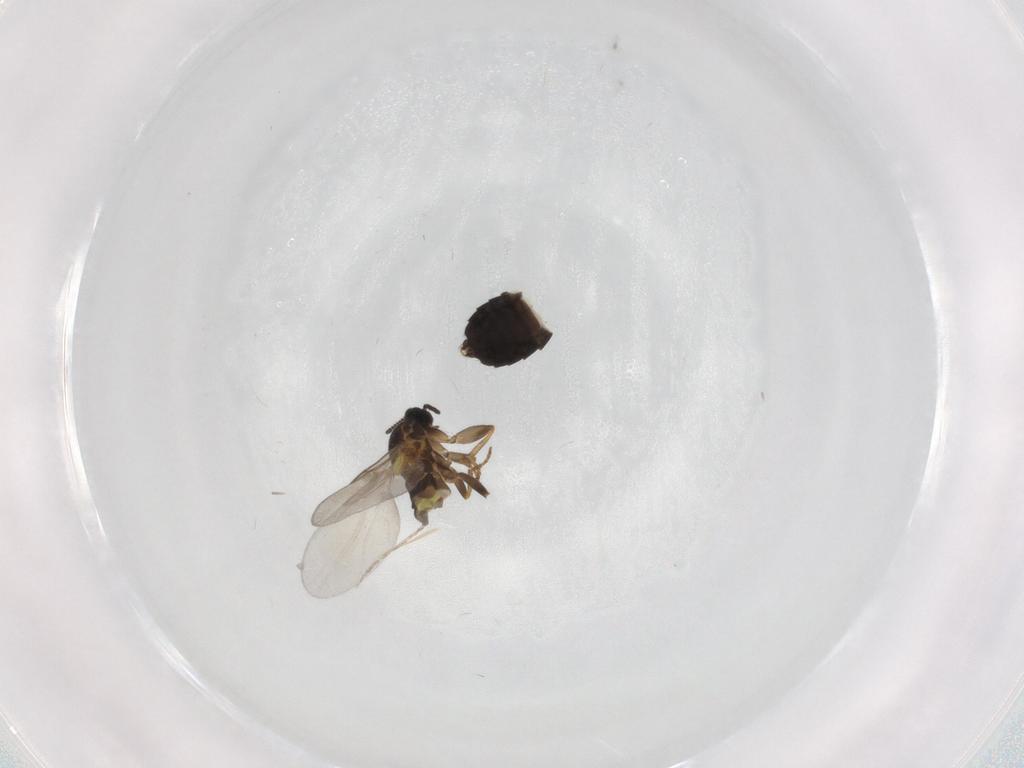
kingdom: Animalia
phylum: Arthropoda
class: Insecta
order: Diptera
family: Scatopsidae
